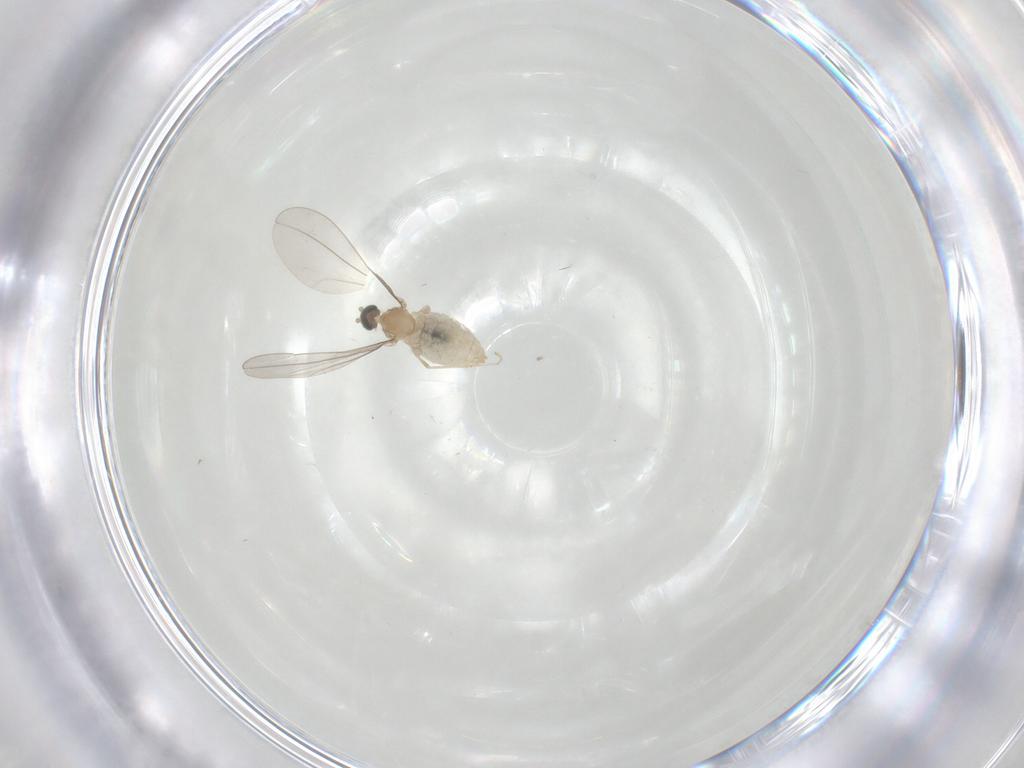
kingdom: Animalia
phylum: Arthropoda
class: Insecta
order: Diptera
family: Cecidomyiidae
